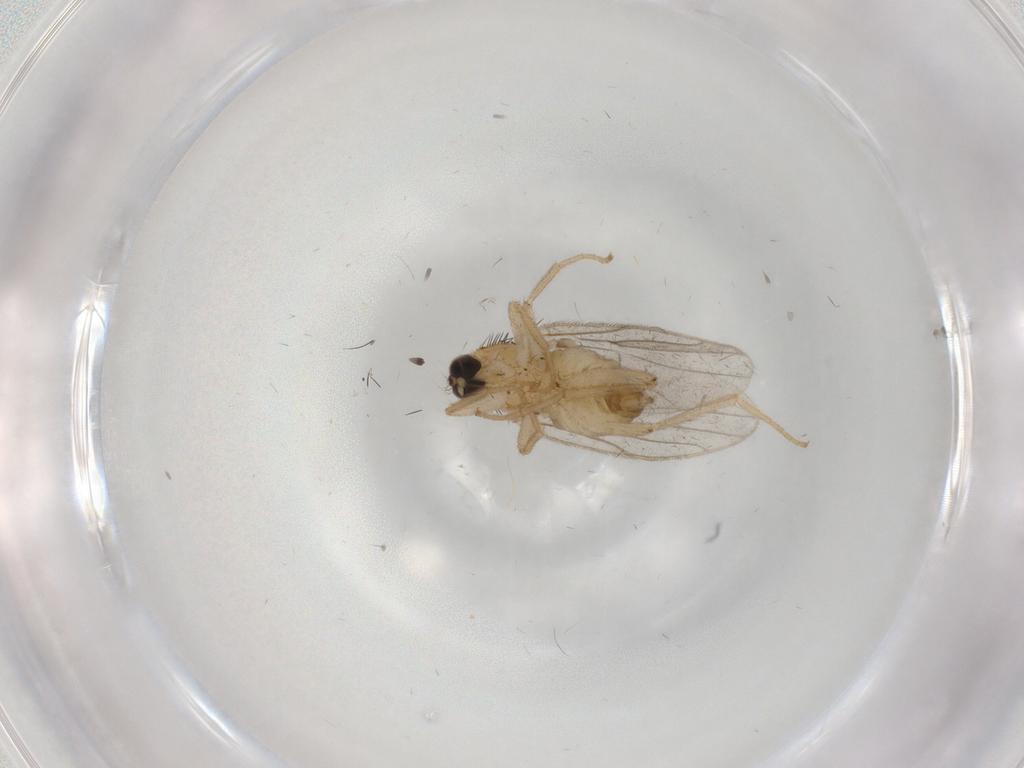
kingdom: Animalia
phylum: Arthropoda
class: Insecta
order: Diptera
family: Hybotidae
